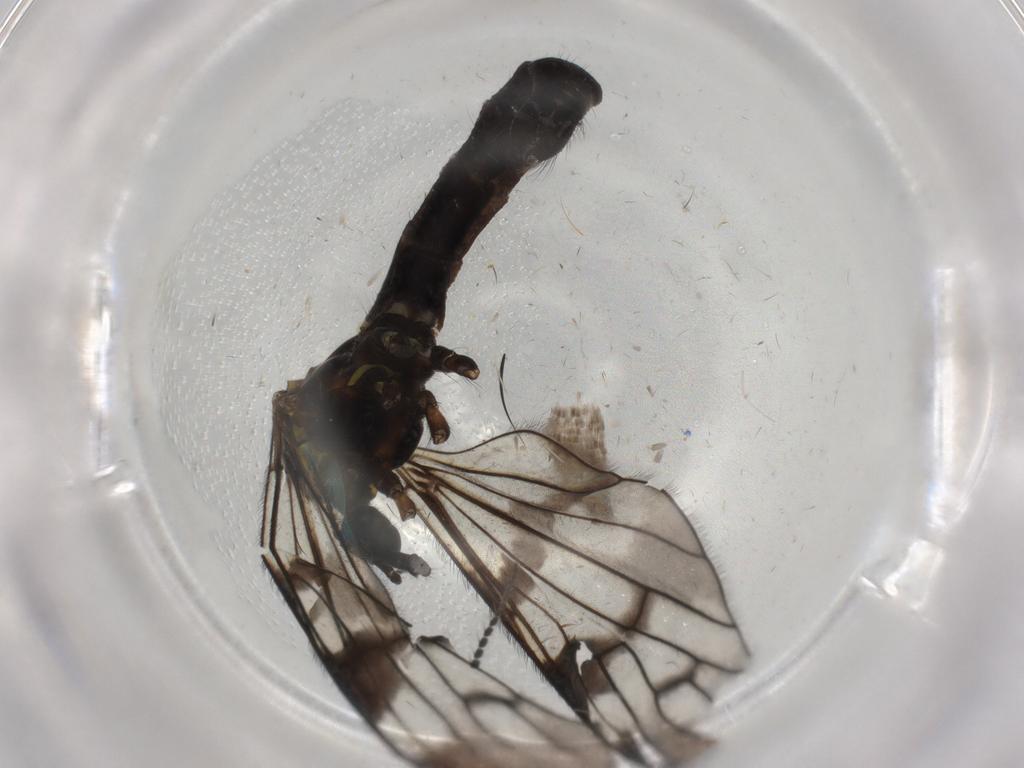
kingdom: Animalia
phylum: Arthropoda
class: Insecta
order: Diptera
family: Limoniidae
